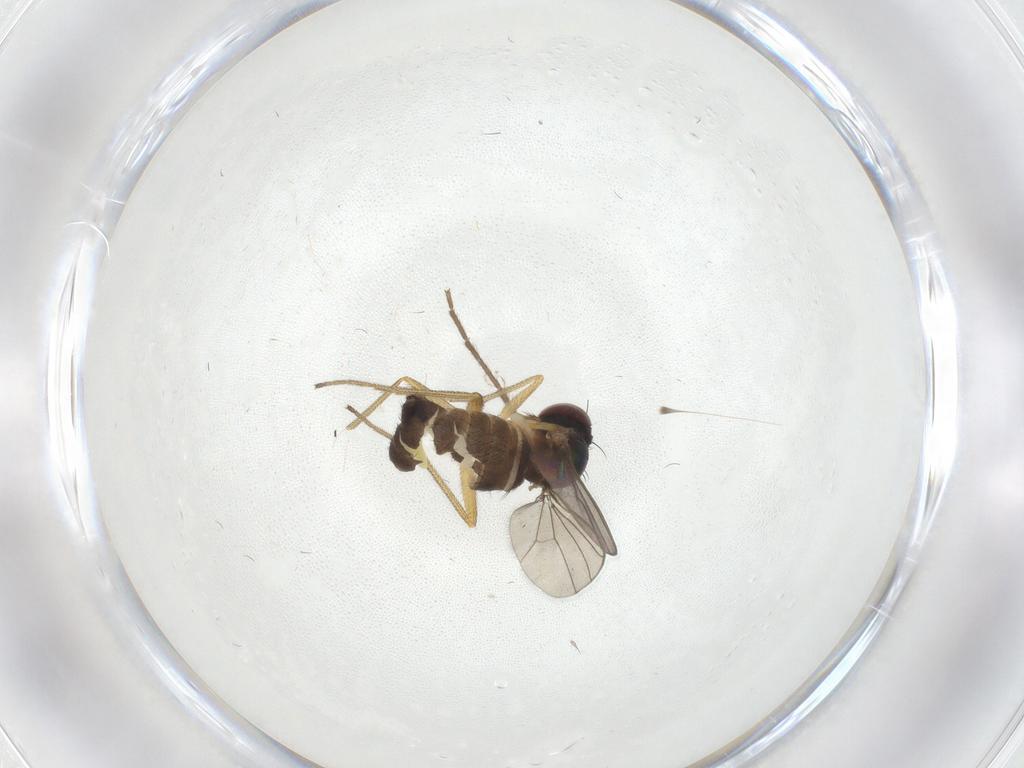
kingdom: Animalia
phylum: Arthropoda
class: Insecta
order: Diptera
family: Dolichopodidae
